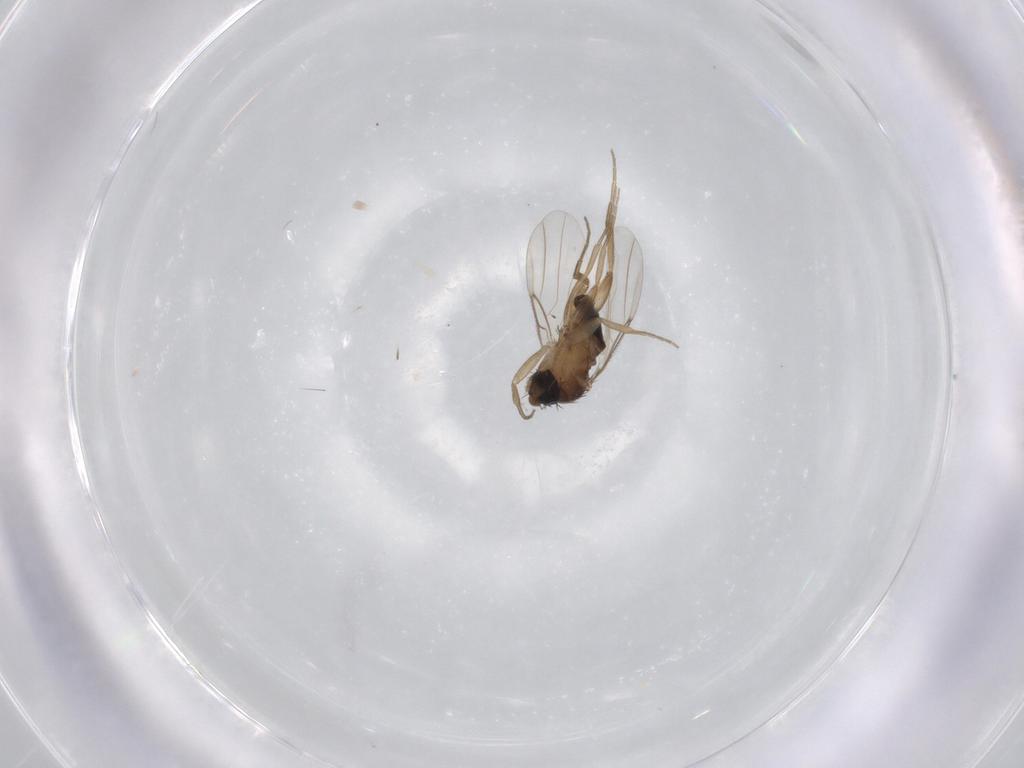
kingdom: Animalia
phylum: Arthropoda
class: Insecta
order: Diptera
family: Phoridae
